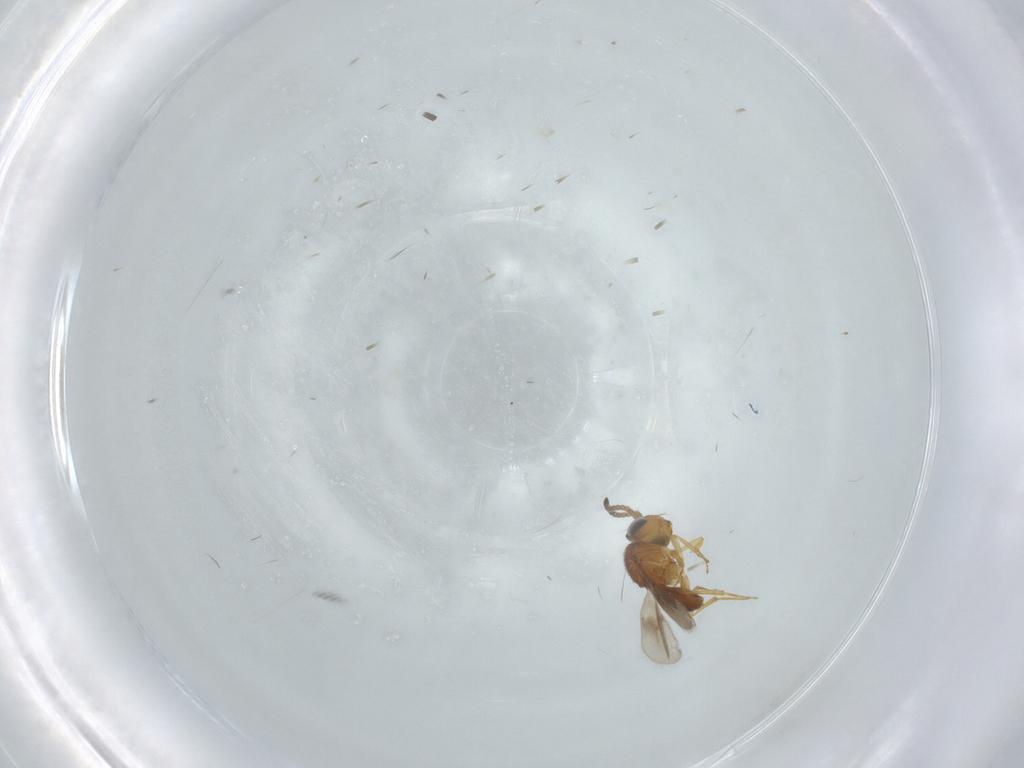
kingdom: Animalia
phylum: Arthropoda
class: Insecta
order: Hymenoptera
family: Scelionidae
